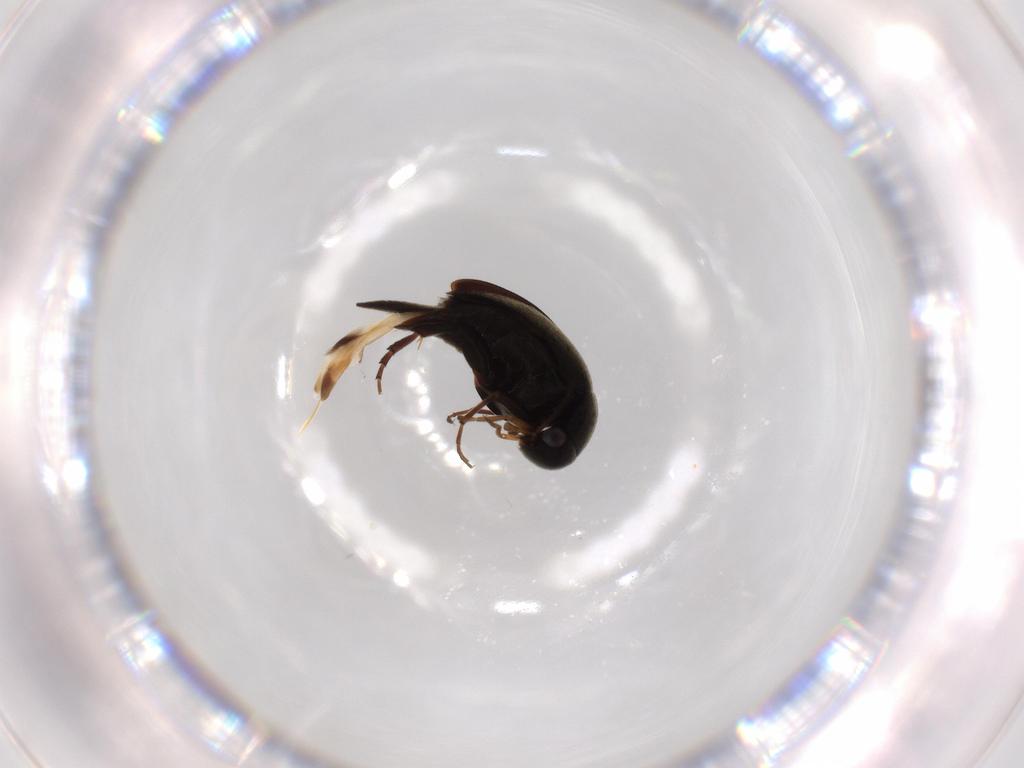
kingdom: Animalia
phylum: Arthropoda
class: Insecta
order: Coleoptera
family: Mordellidae
